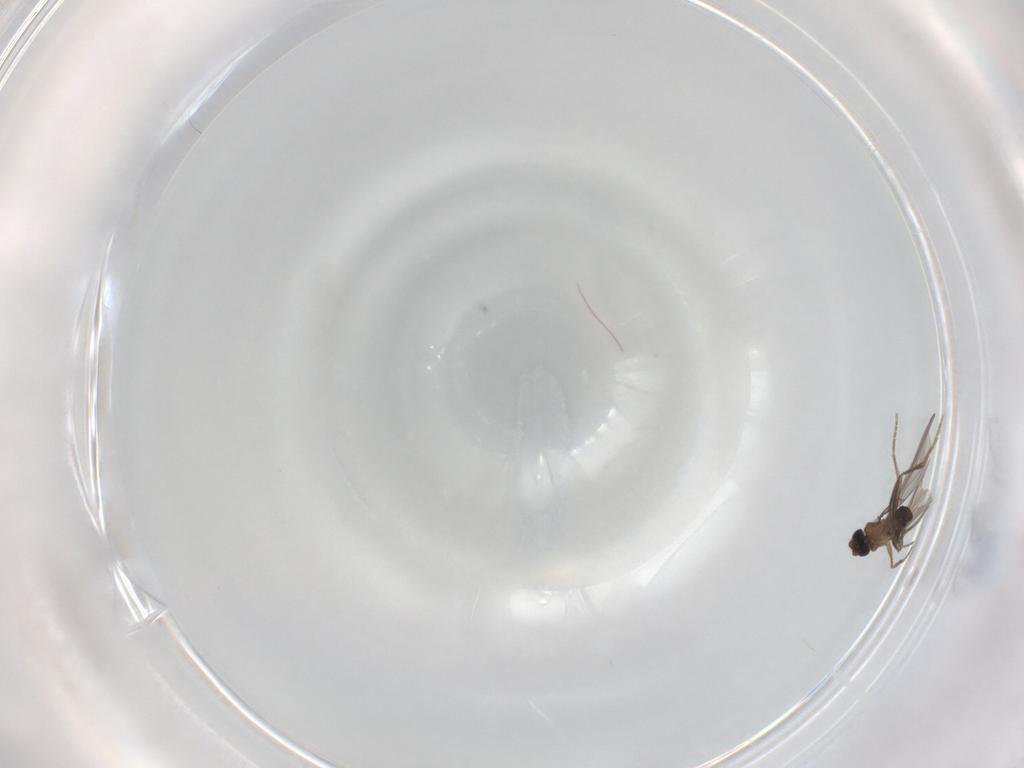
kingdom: Animalia
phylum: Arthropoda
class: Insecta
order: Diptera
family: Phoridae
